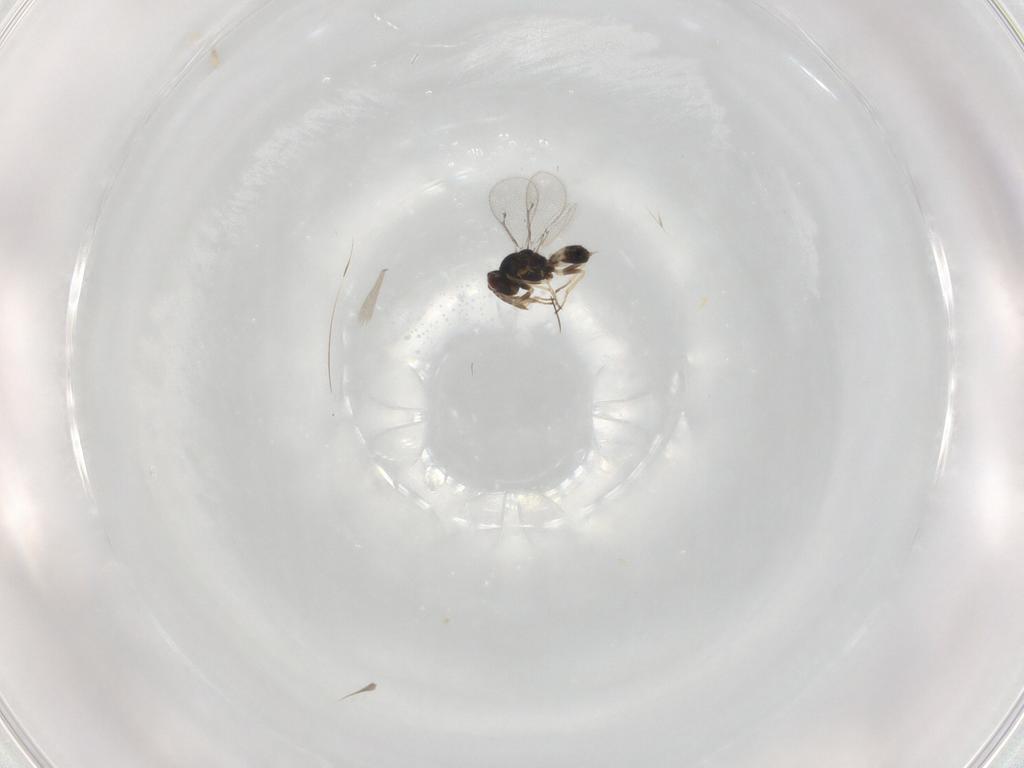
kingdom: Animalia
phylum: Arthropoda
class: Insecta
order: Hymenoptera
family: Eulophidae
